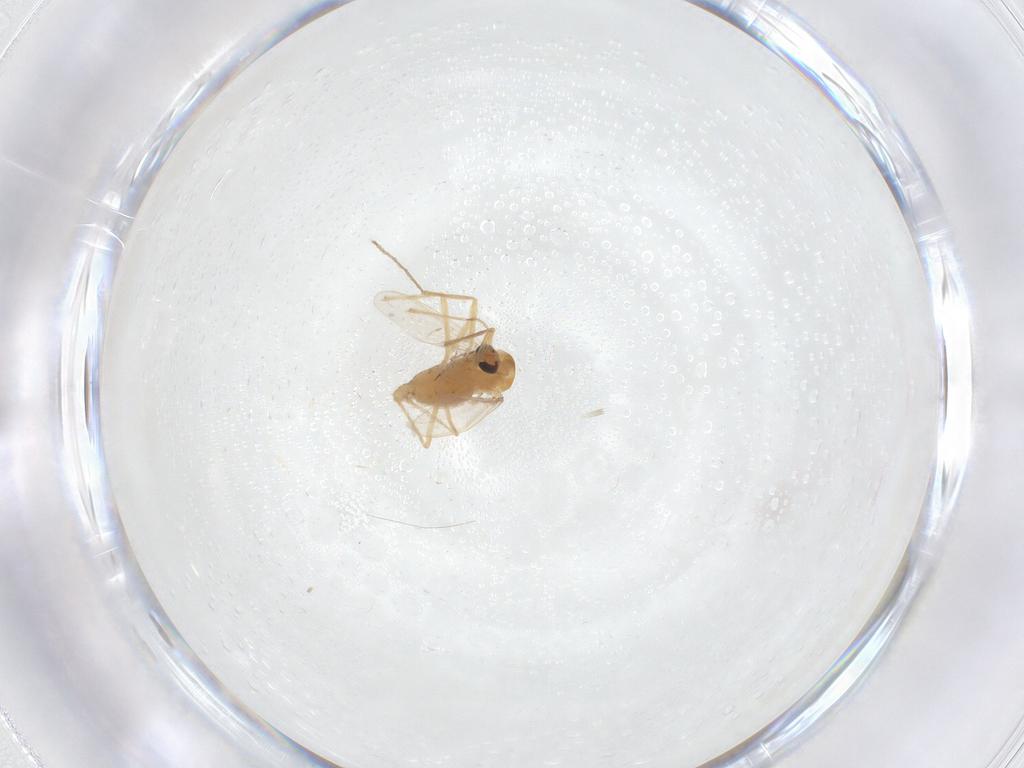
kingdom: Animalia
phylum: Arthropoda
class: Insecta
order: Diptera
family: Chironomidae
